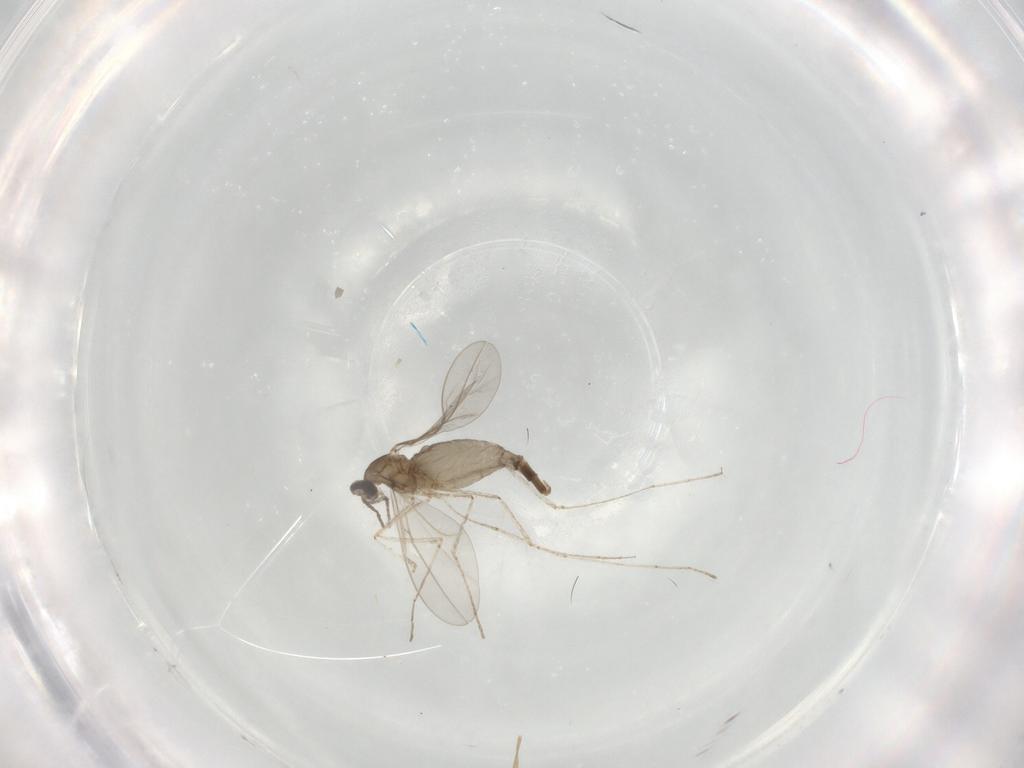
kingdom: Animalia
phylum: Arthropoda
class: Insecta
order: Diptera
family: Cecidomyiidae
